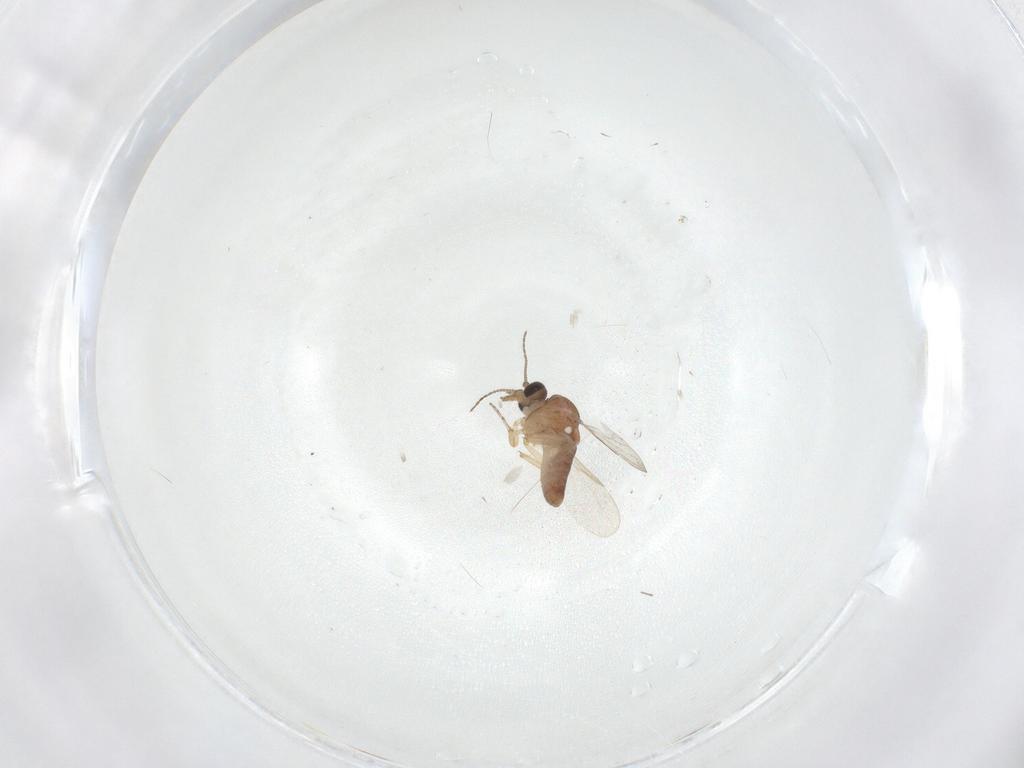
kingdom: Animalia
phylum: Arthropoda
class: Insecta
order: Diptera
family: Ceratopogonidae
